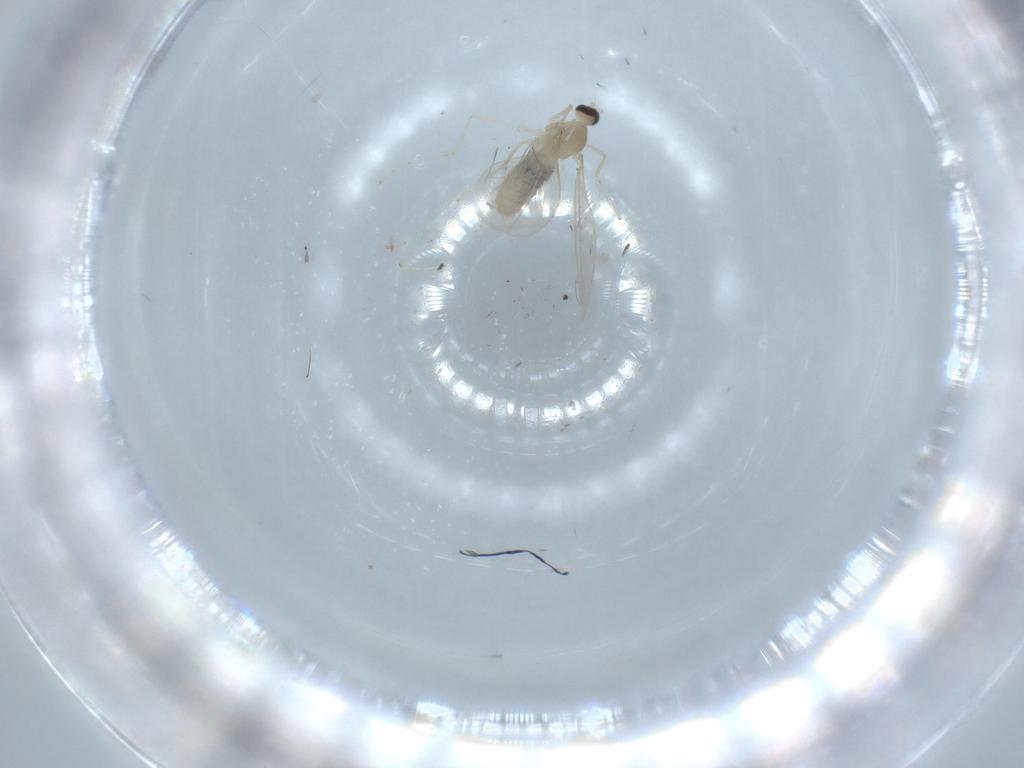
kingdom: Animalia
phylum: Arthropoda
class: Insecta
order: Diptera
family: Cecidomyiidae
